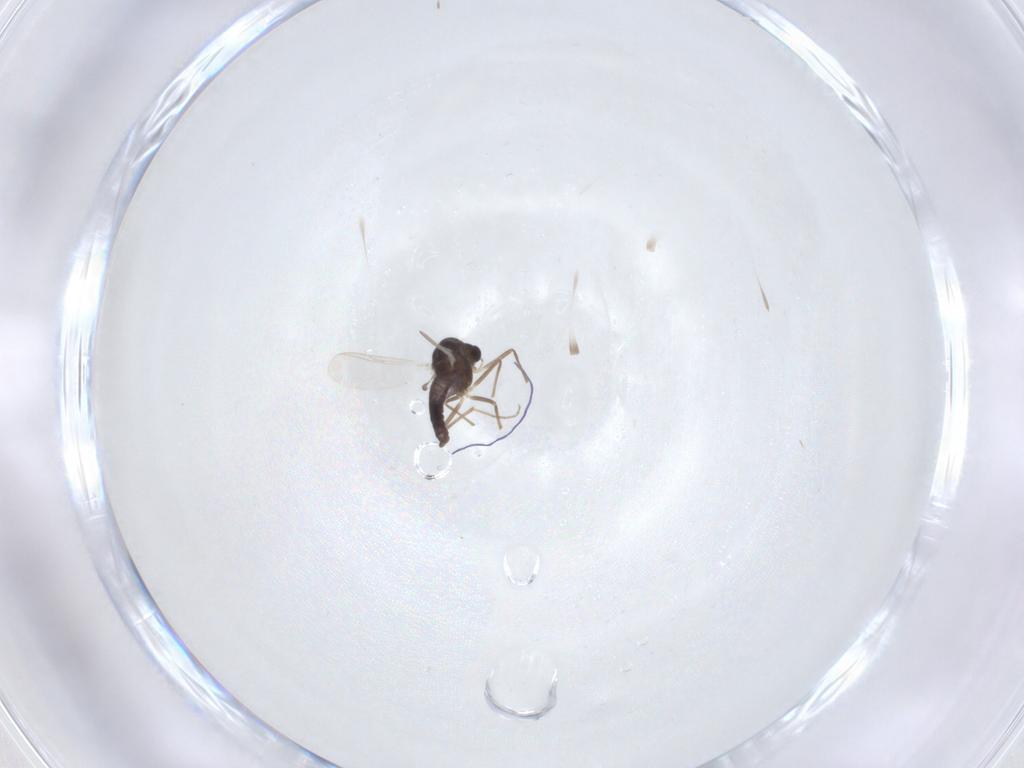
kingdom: Animalia
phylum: Arthropoda
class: Insecta
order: Diptera
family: Chironomidae
